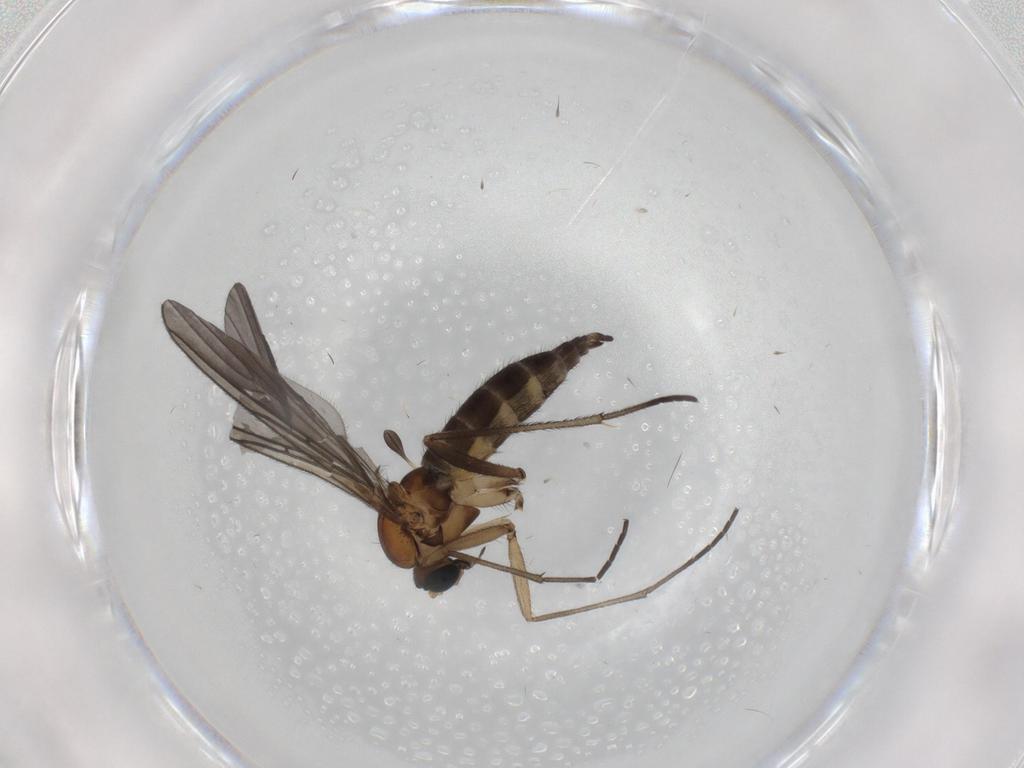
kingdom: Animalia
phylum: Arthropoda
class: Insecta
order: Diptera
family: Sciaridae
